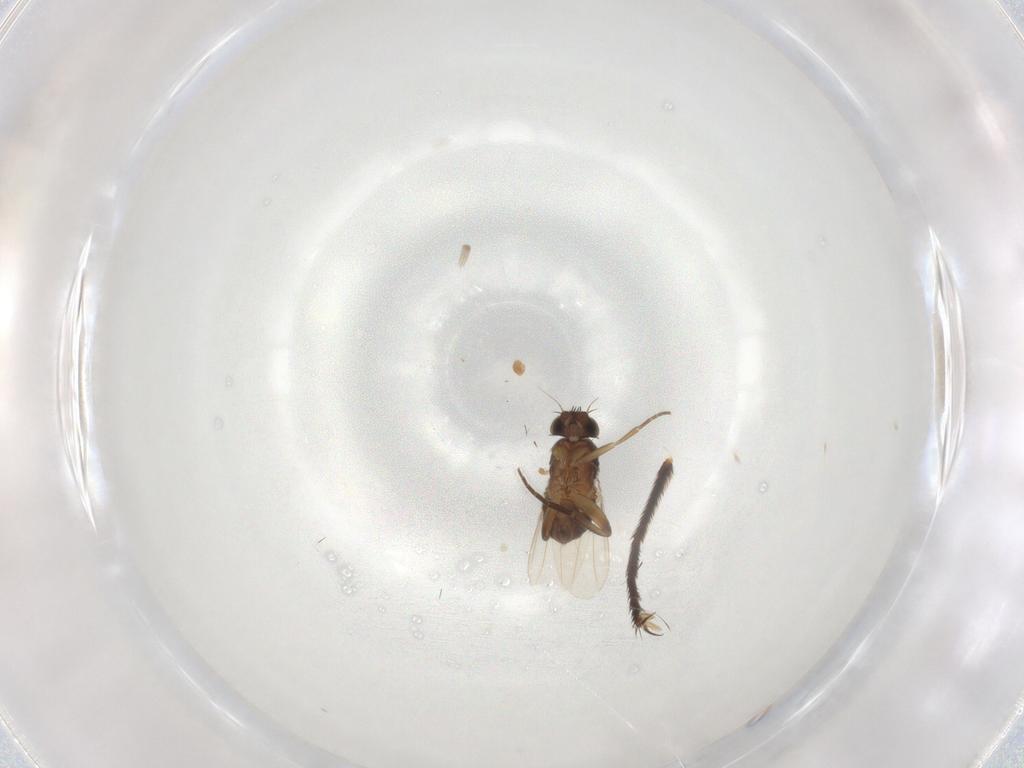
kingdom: Animalia
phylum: Arthropoda
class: Insecta
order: Diptera
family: Phoridae
